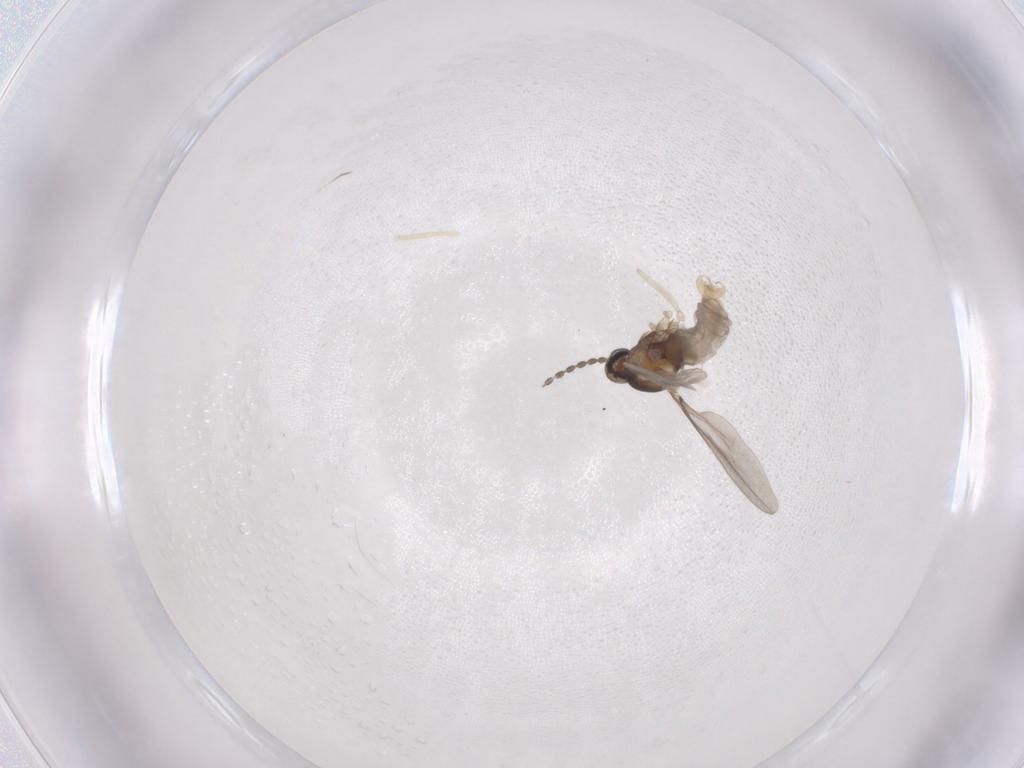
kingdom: Animalia
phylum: Arthropoda
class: Insecta
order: Diptera
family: Cecidomyiidae
